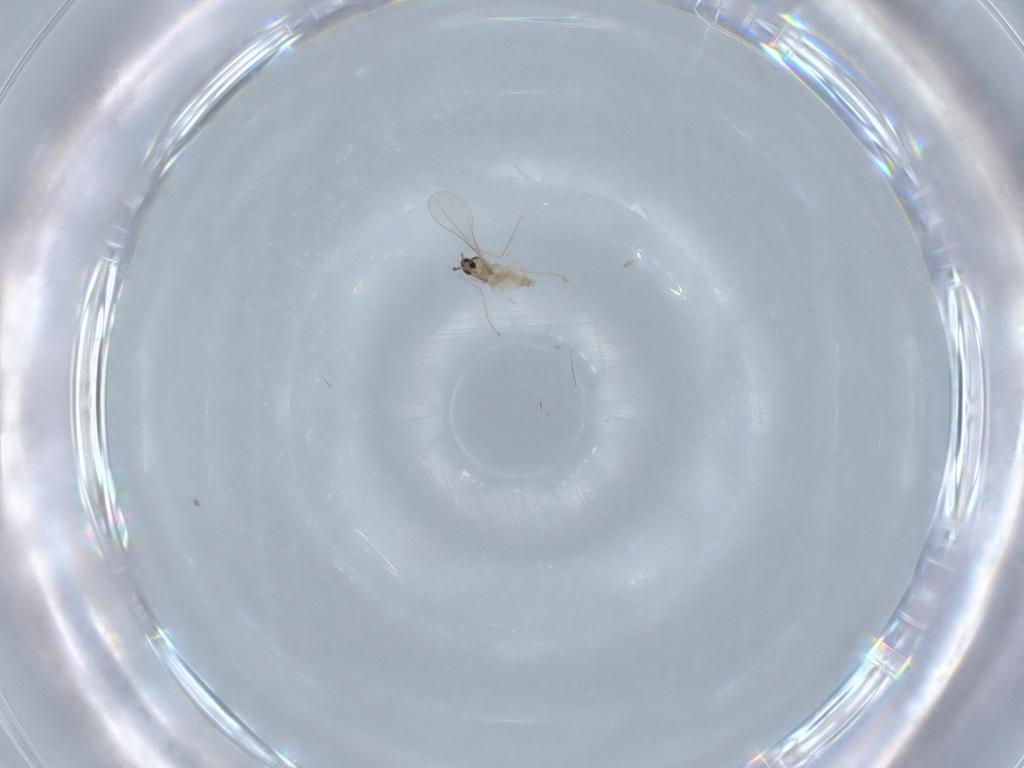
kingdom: Animalia
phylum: Arthropoda
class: Insecta
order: Diptera
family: Cecidomyiidae
